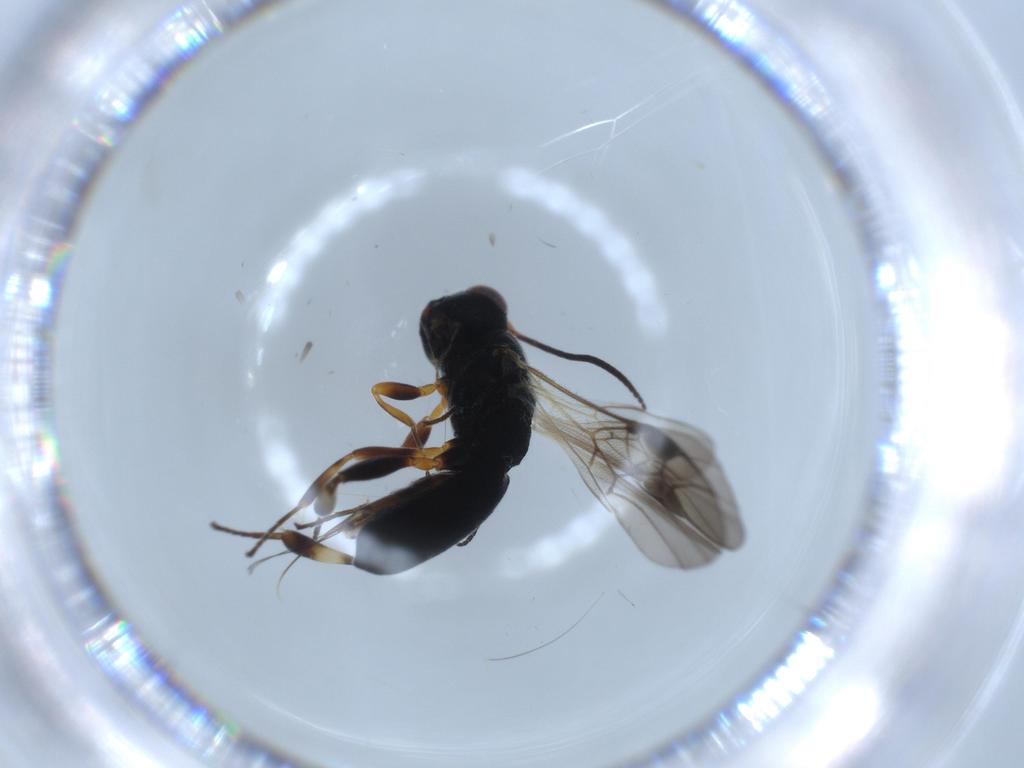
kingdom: Animalia
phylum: Arthropoda
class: Insecta
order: Hymenoptera
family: Braconidae
